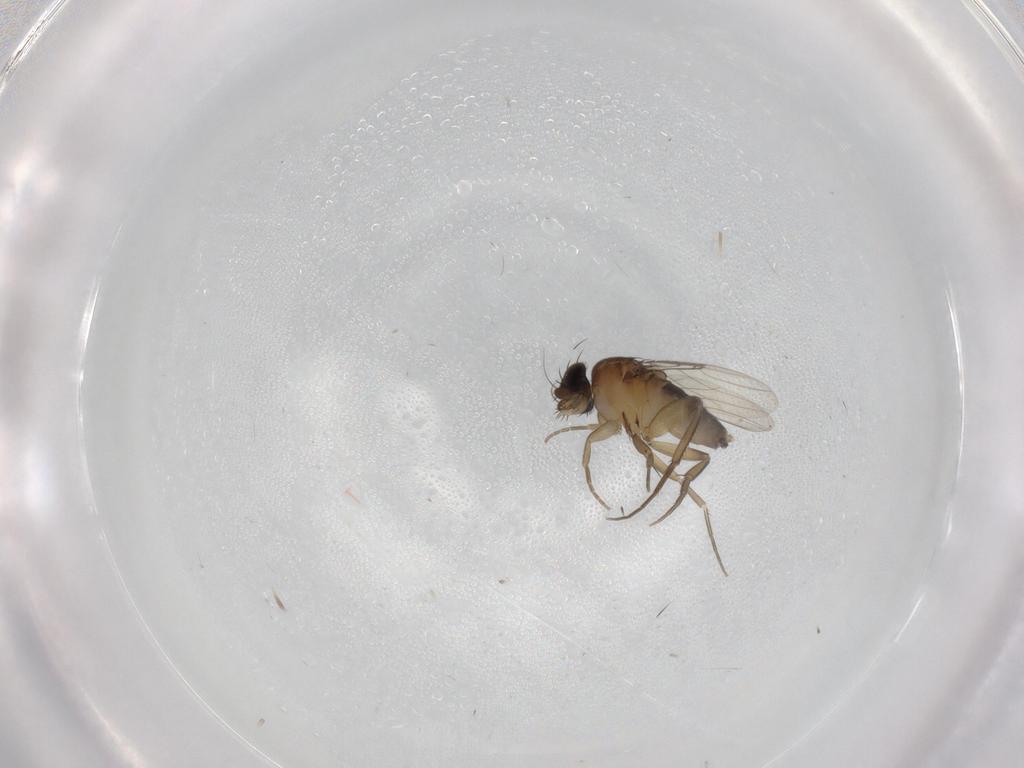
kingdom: Animalia
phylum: Arthropoda
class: Insecta
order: Diptera
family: Phoridae
